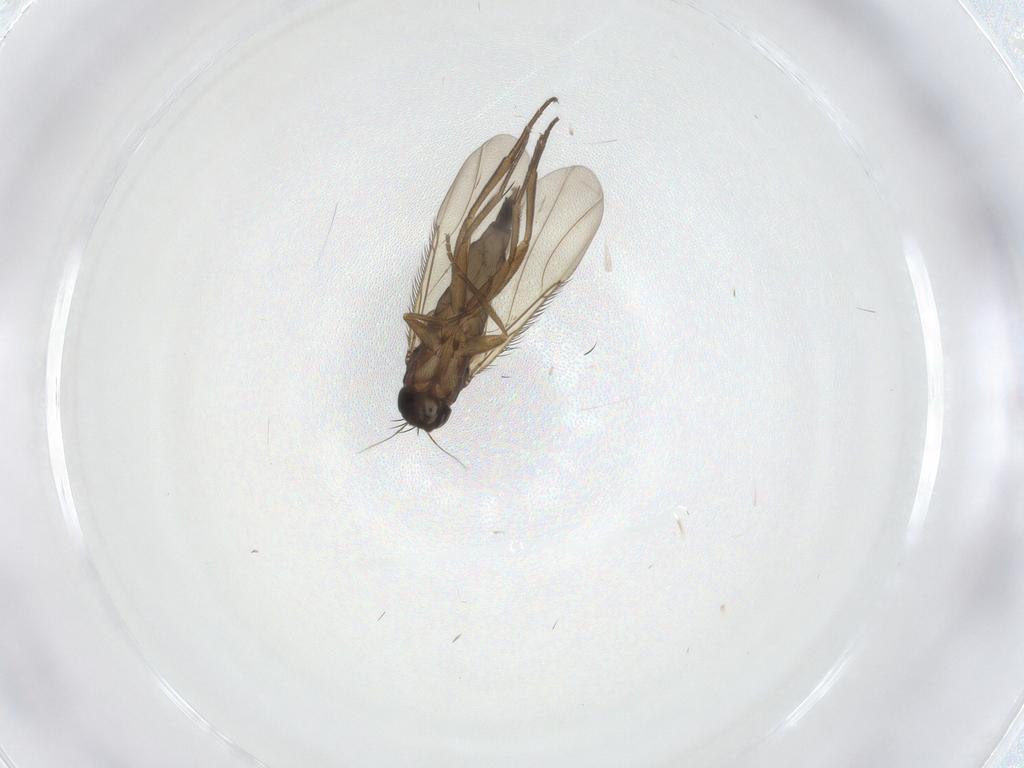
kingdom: Animalia
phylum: Arthropoda
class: Insecta
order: Diptera
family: Phoridae
